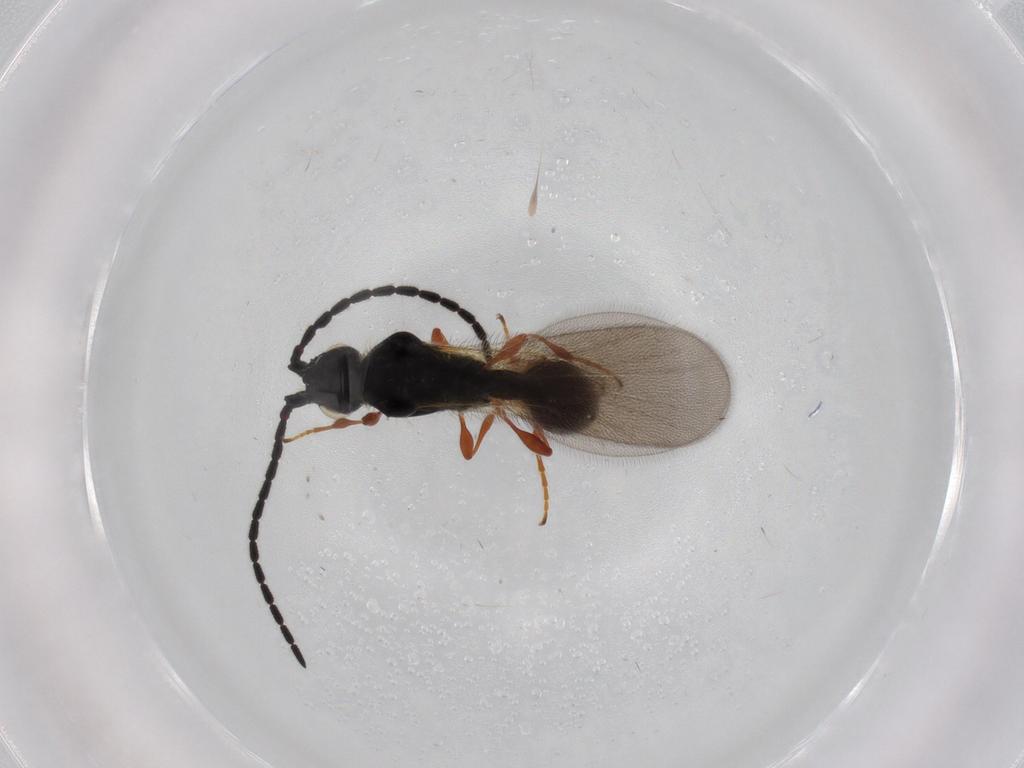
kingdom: Animalia
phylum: Arthropoda
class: Insecta
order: Hymenoptera
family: Diapriidae
